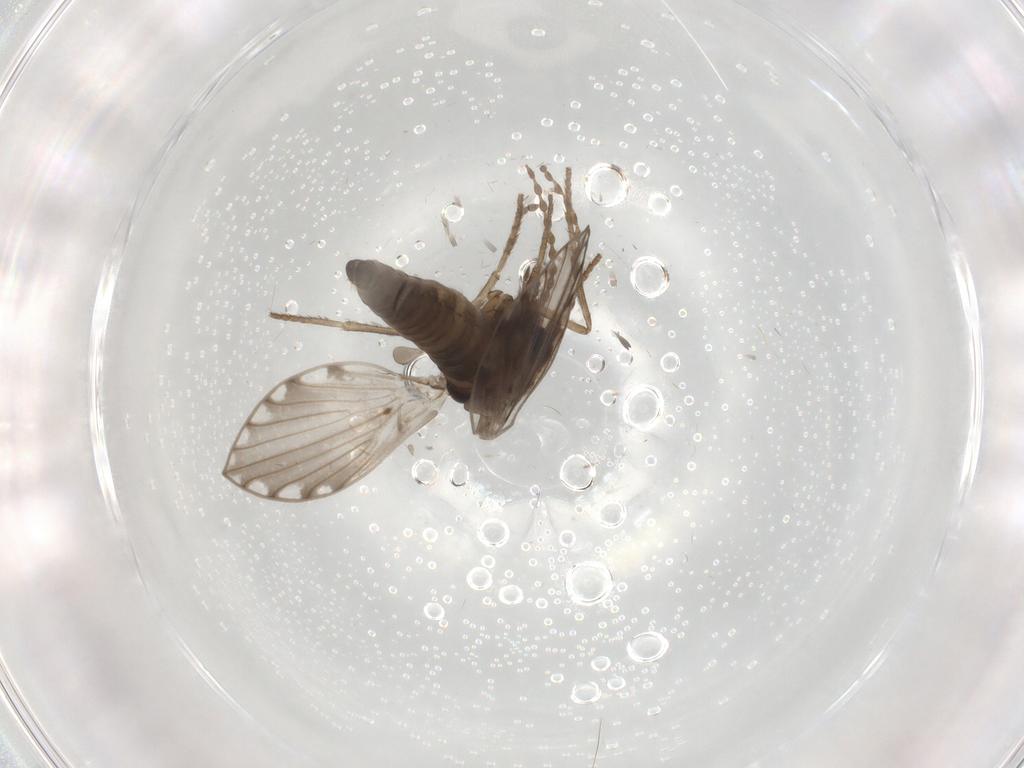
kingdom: Animalia
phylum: Arthropoda
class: Insecta
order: Diptera
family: Psychodidae
